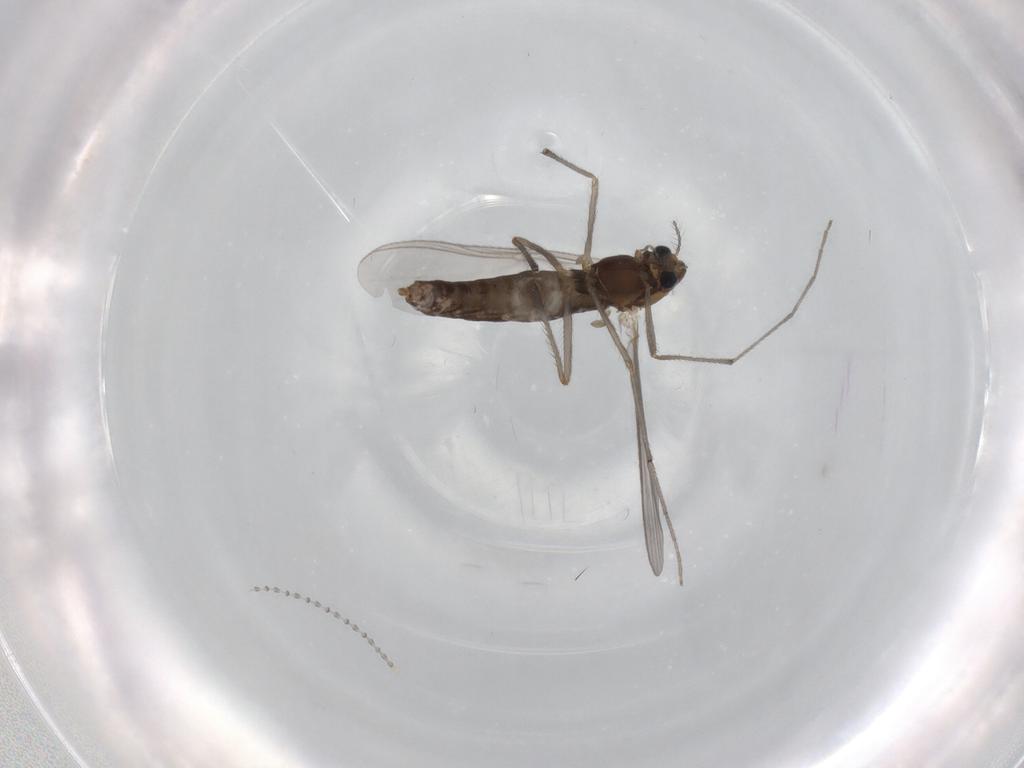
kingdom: Animalia
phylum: Arthropoda
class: Insecta
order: Diptera
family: Chironomidae
